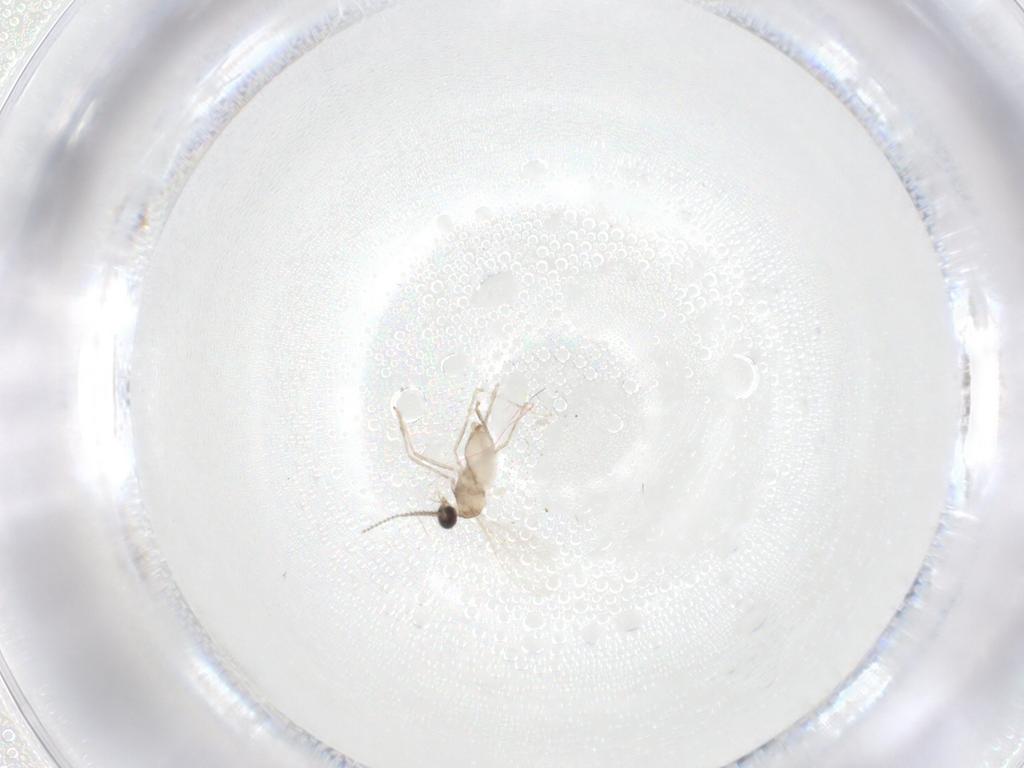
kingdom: Animalia
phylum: Arthropoda
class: Insecta
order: Diptera
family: Cecidomyiidae
